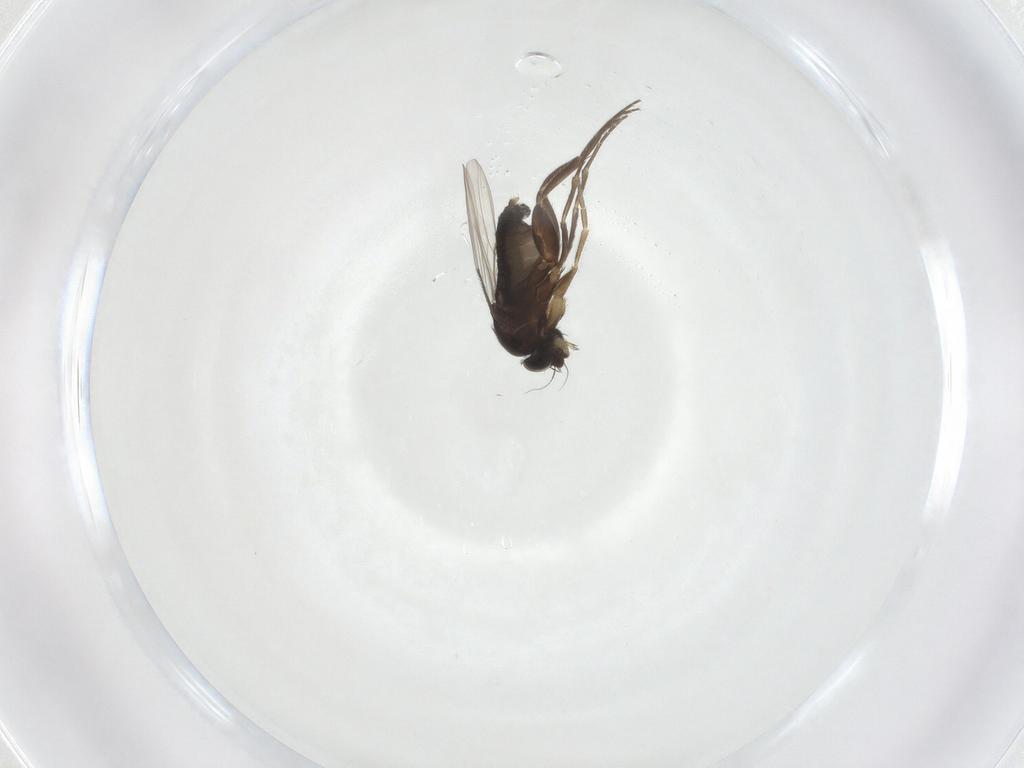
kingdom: Animalia
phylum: Arthropoda
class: Insecta
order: Diptera
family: Phoridae
